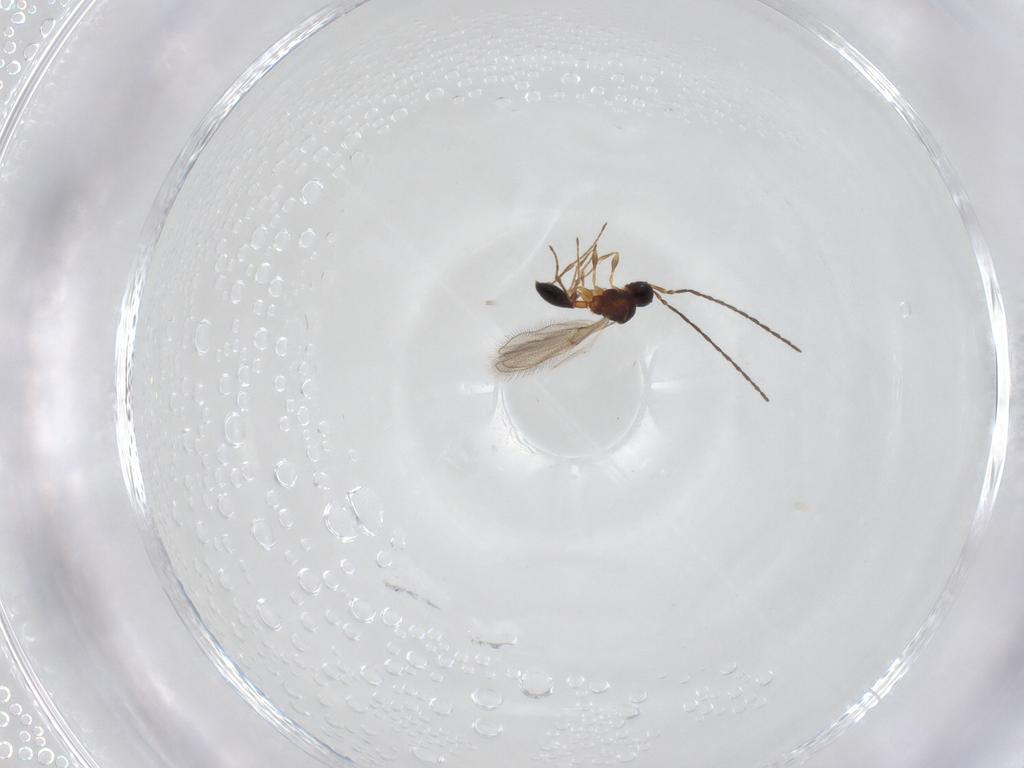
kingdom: Animalia
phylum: Arthropoda
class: Insecta
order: Hymenoptera
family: Diapriidae
